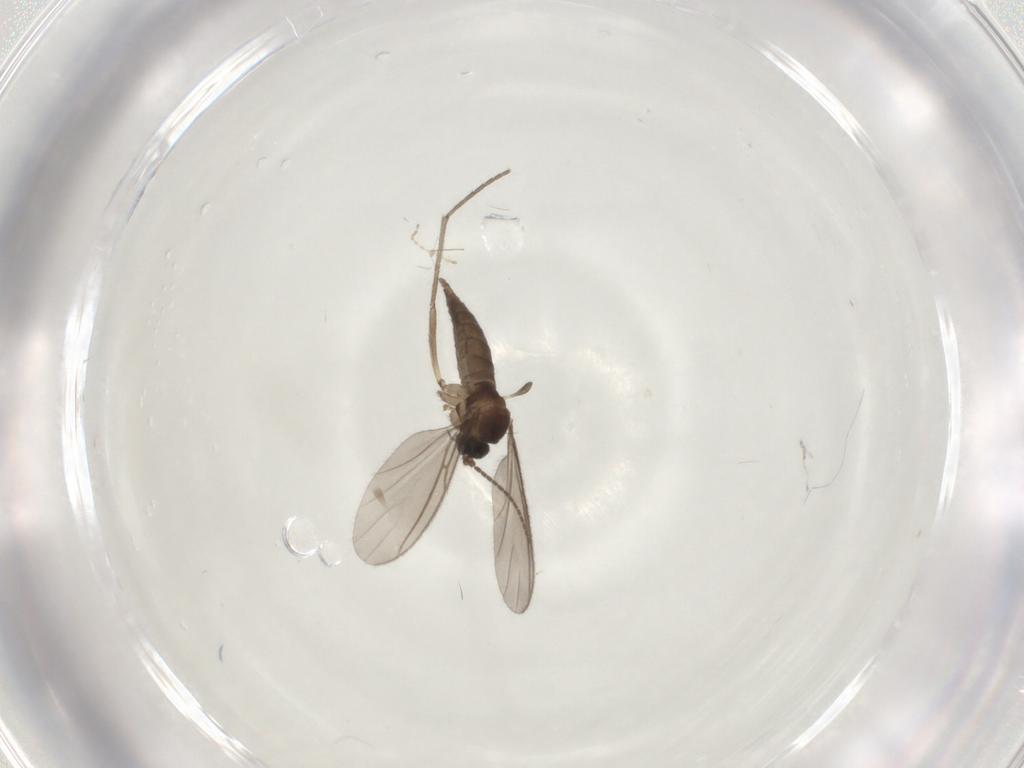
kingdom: Animalia
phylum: Arthropoda
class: Insecta
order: Diptera
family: Sciaridae
